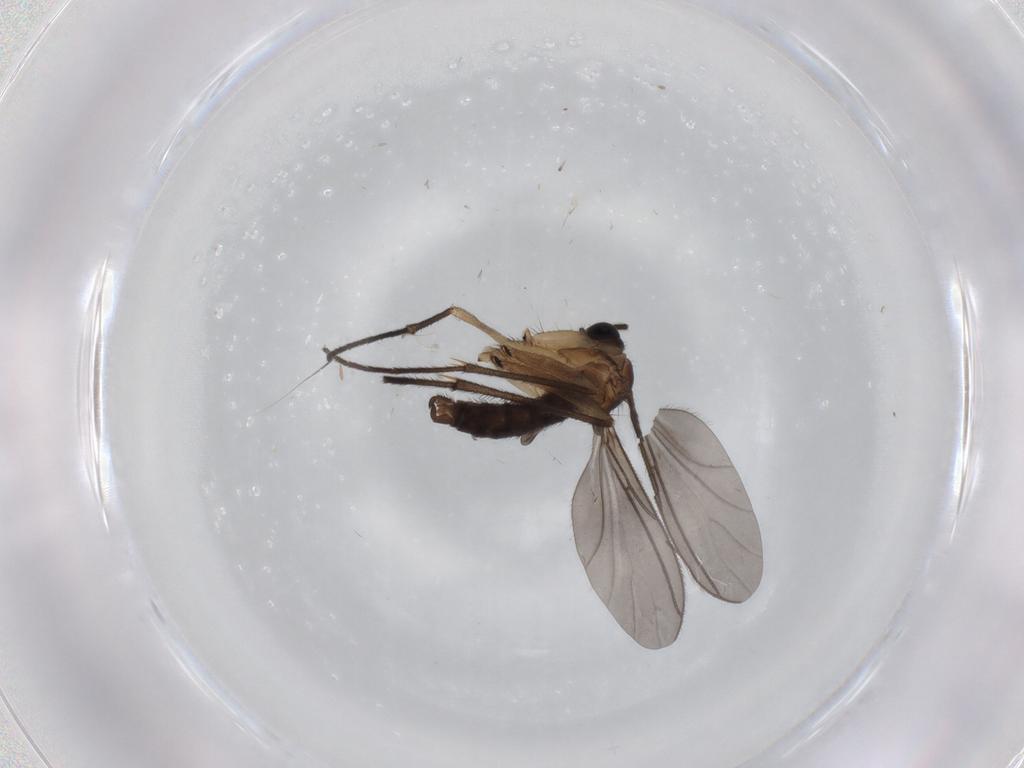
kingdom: Animalia
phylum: Arthropoda
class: Insecta
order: Diptera
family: Sciaridae
